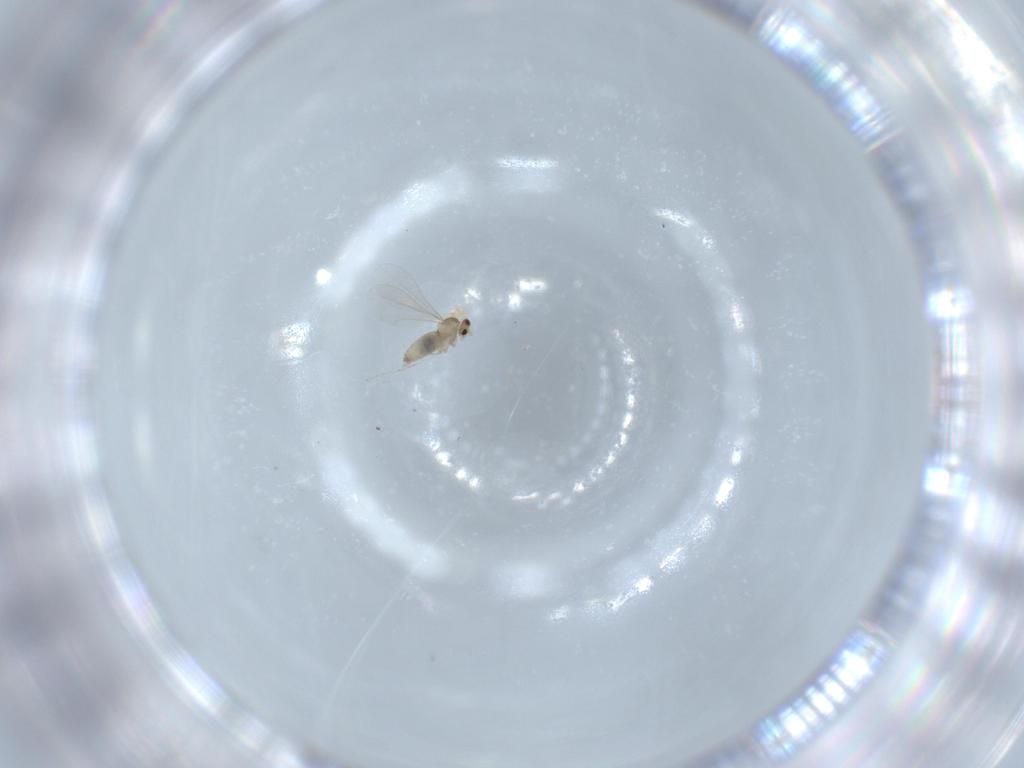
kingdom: Animalia
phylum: Arthropoda
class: Insecta
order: Diptera
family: Cecidomyiidae
